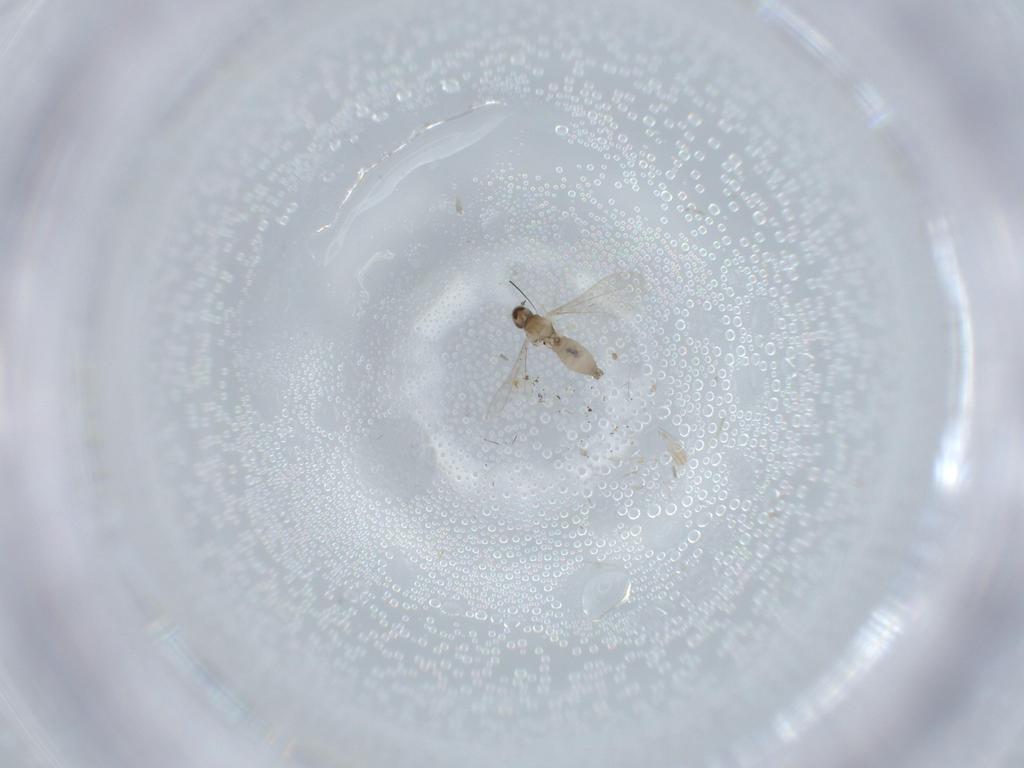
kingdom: Animalia
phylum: Arthropoda
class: Insecta
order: Diptera
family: Cecidomyiidae
